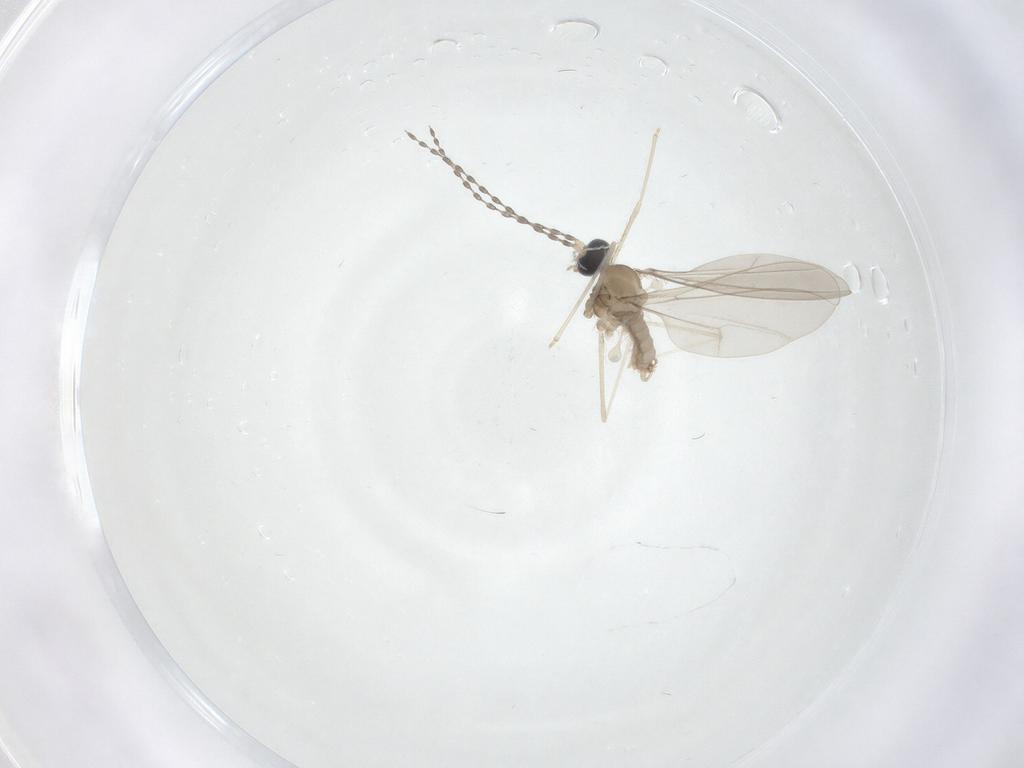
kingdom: Animalia
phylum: Arthropoda
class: Insecta
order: Diptera
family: Cecidomyiidae
